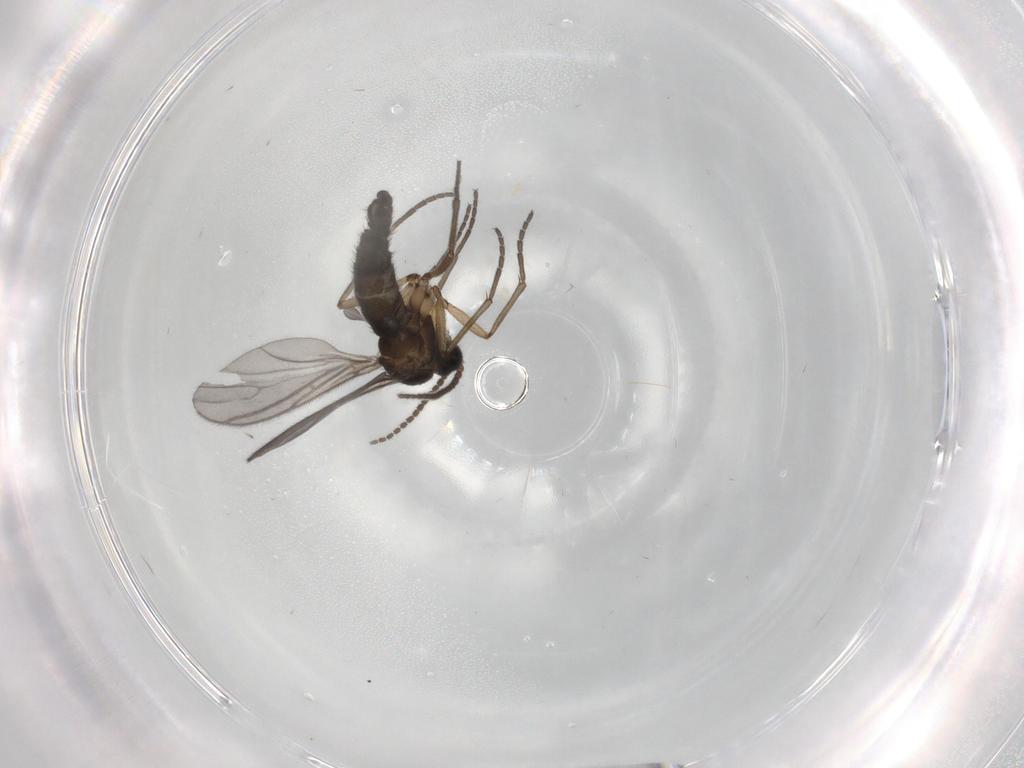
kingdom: Animalia
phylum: Arthropoda
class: Insecta
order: Diptera
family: Sciaridae
